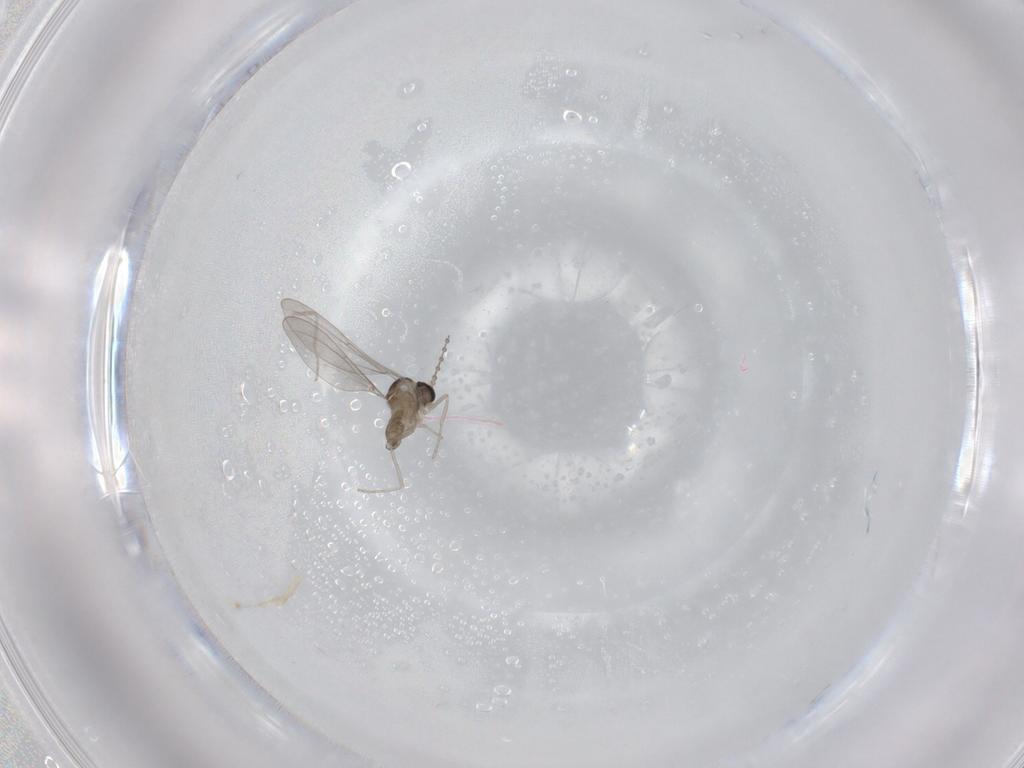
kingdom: Animalia
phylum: Arthropoda
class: Insecta
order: Diptera
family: Cecidomyiidae
